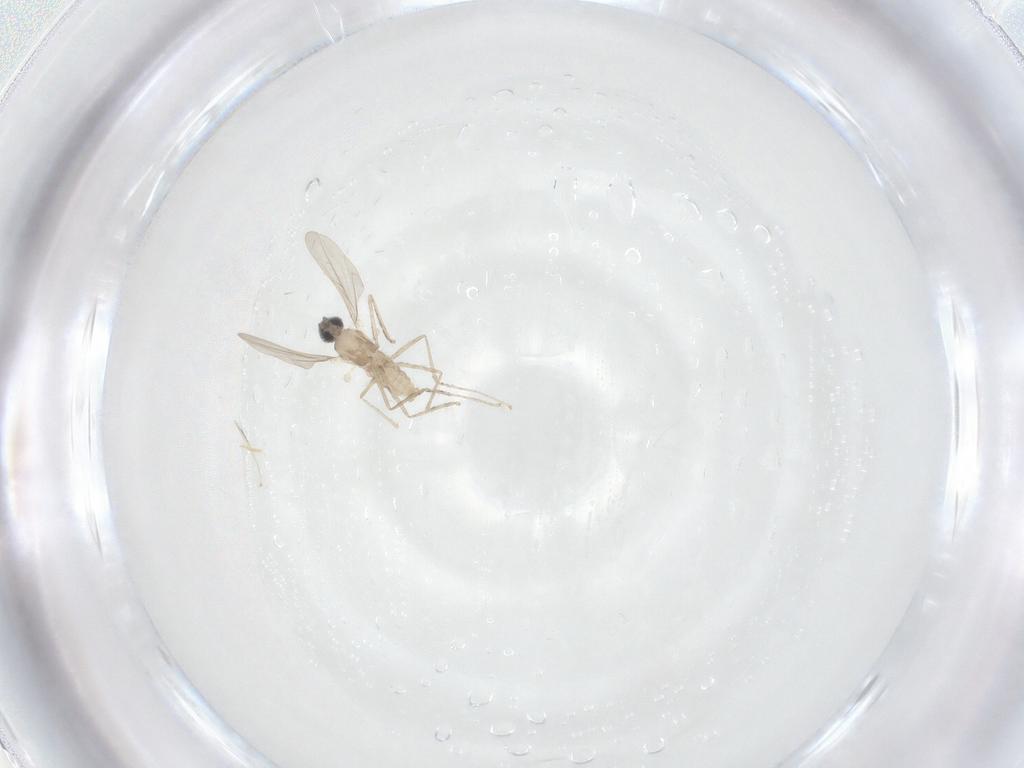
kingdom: Animalia
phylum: Arthropoda
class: Insecta
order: Diptera
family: Cecidomyiidae
